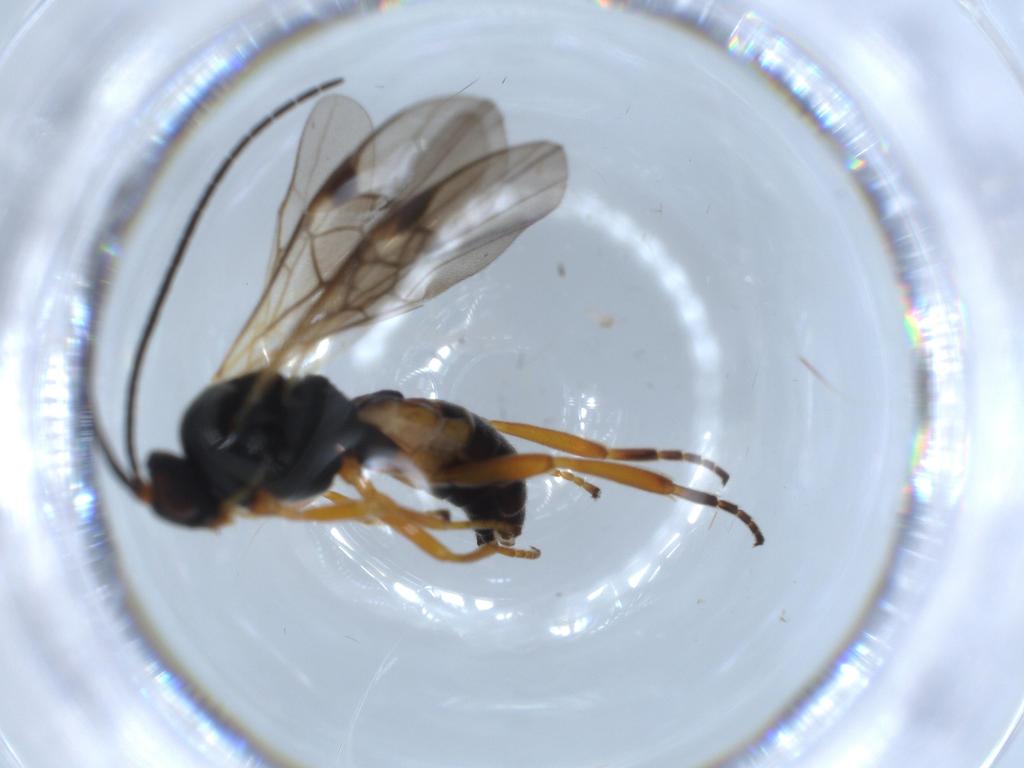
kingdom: Animalia
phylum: Arthropoda
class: Insecta
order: Hymenoptera
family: Braconidae
